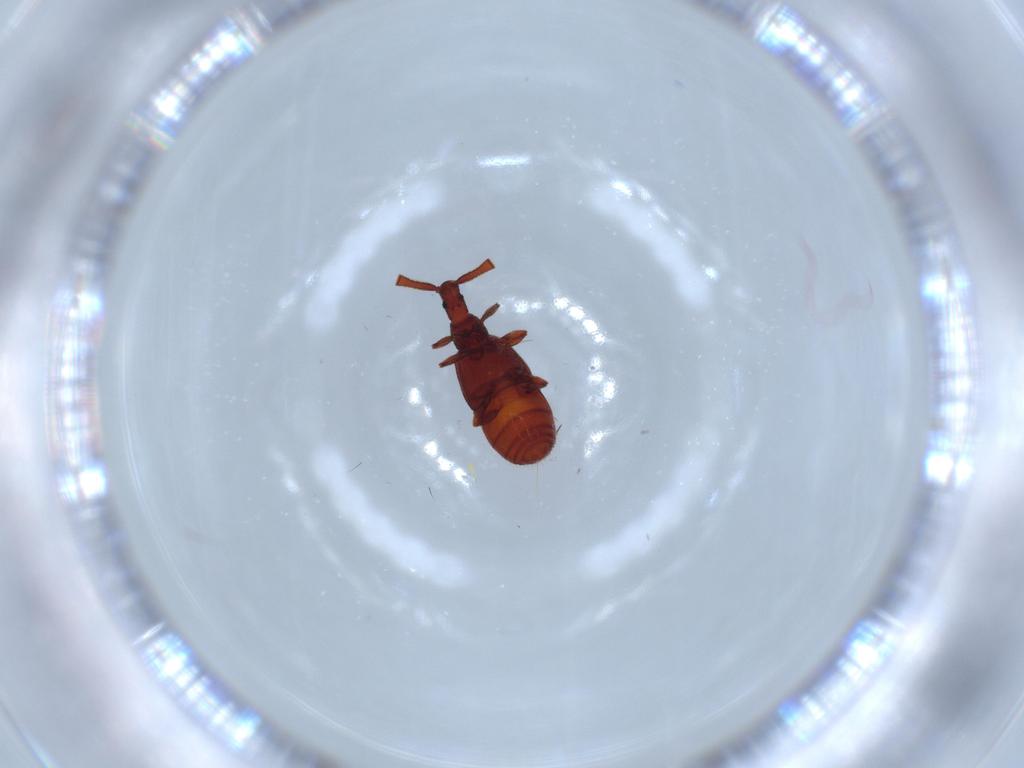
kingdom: Animalia
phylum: Arthropoda
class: Insecta
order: Coleoptera
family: Staphylinidae
